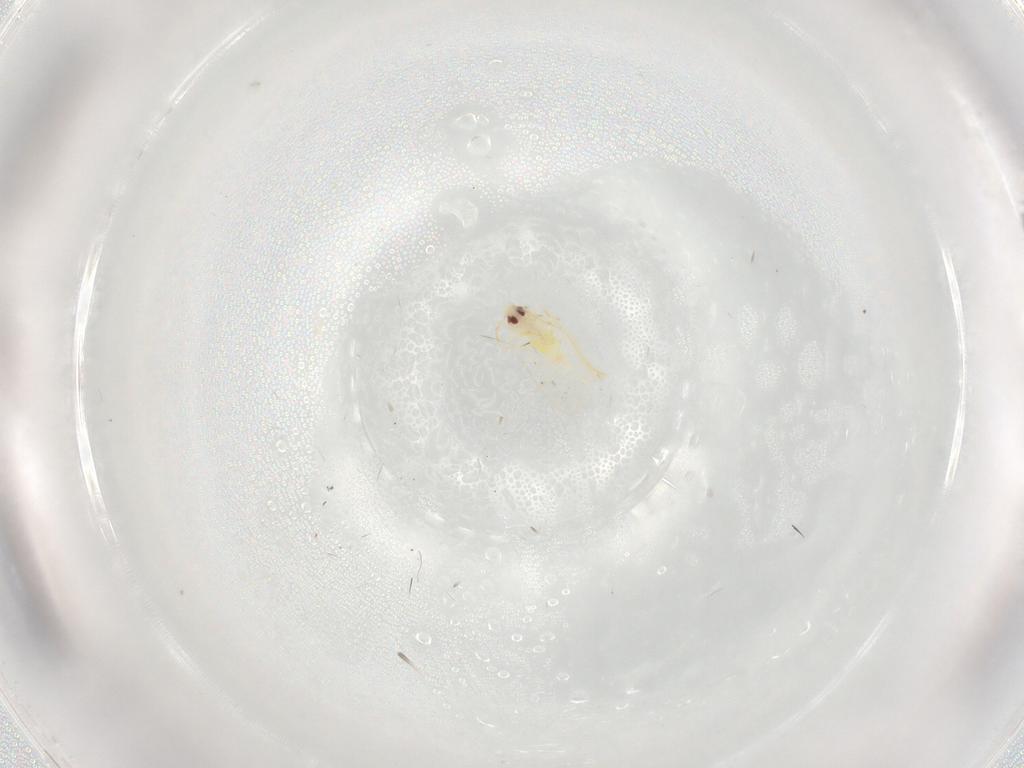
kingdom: Animalia
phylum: Arthropoda
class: Insecta
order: Hemiptera
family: Aleyrodidae
